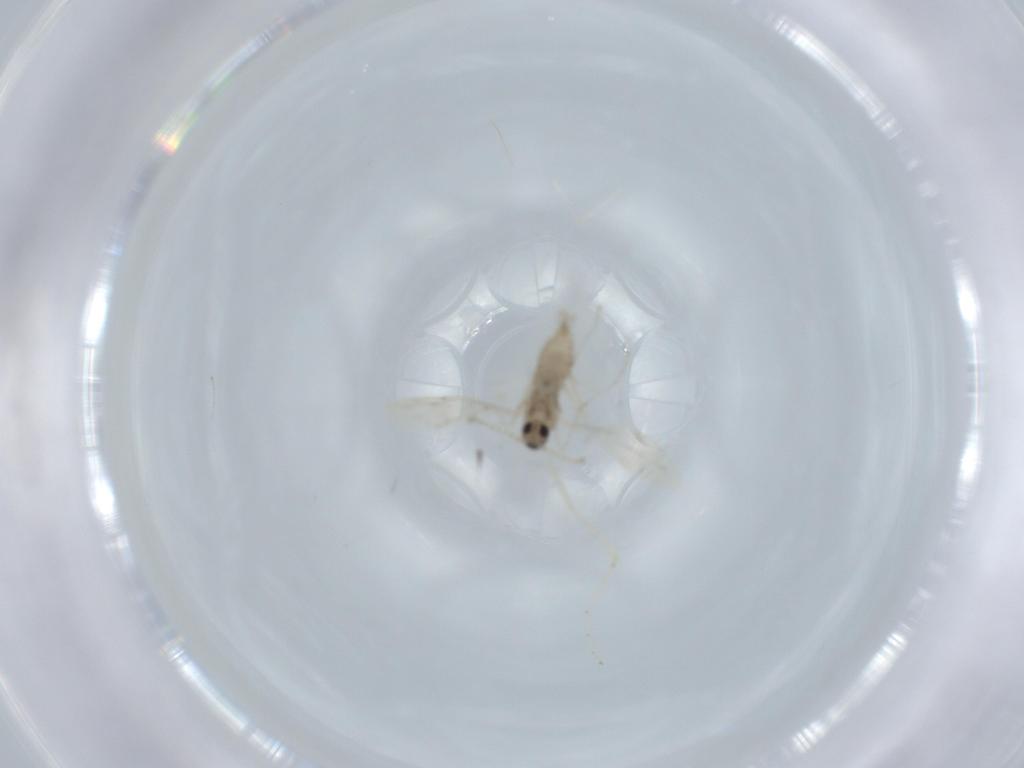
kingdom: Animalia
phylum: Arthropoda
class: Insecta
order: Diptera
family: Cecidomyiidae
